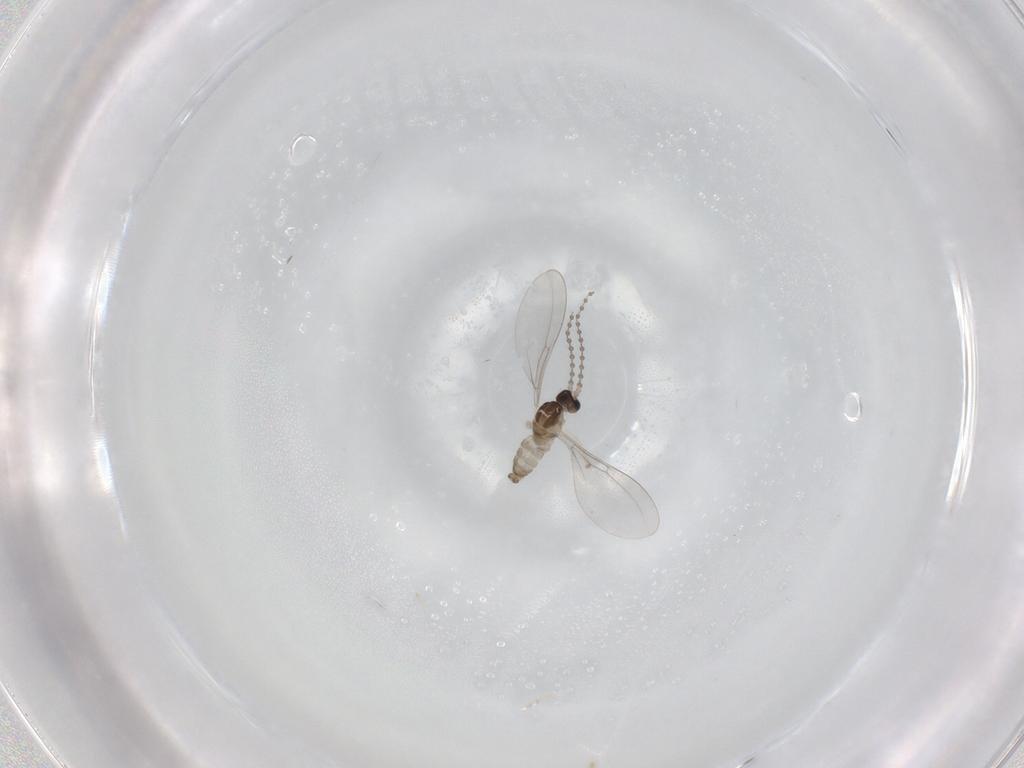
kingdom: Animalia
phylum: Arthropoda
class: Insecta
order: Diptera
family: Cecidomyiidae
